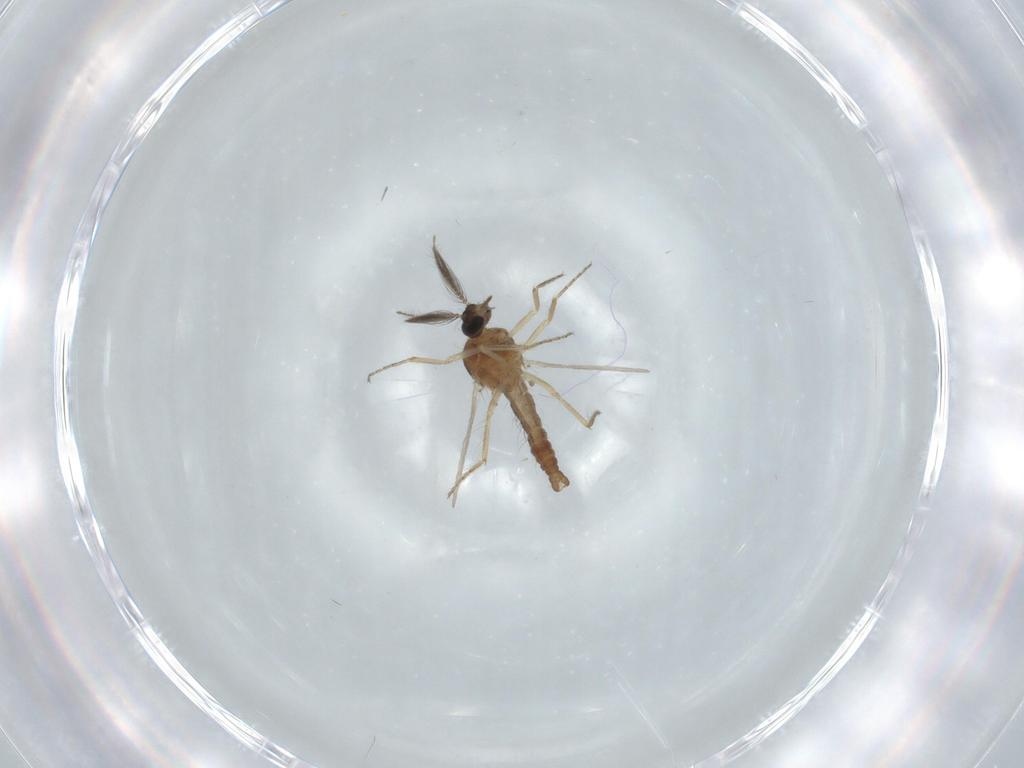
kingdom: Animalia
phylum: Arthropoda
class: Insecta
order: Diptera
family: Ceratopogonidae
